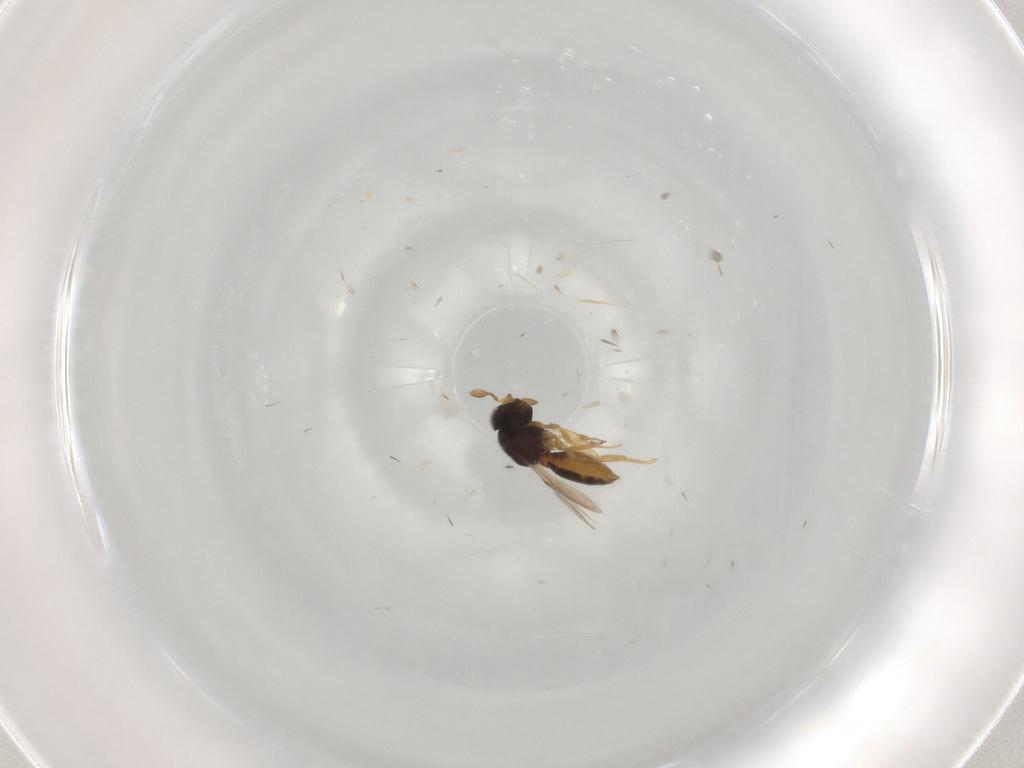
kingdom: Animalia
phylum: Arthropoda
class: Insecta
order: Hymenoptera
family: Scelionidae
